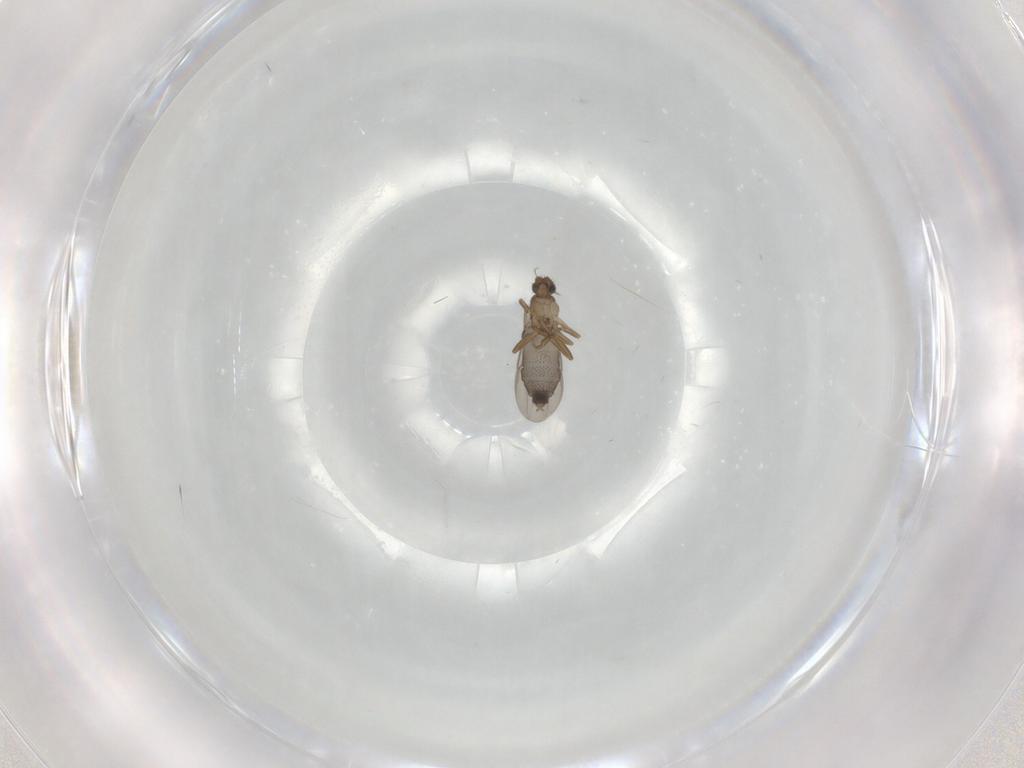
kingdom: Animalia
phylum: Arthropoda
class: Insecta
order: Diptera
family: Phoridae
